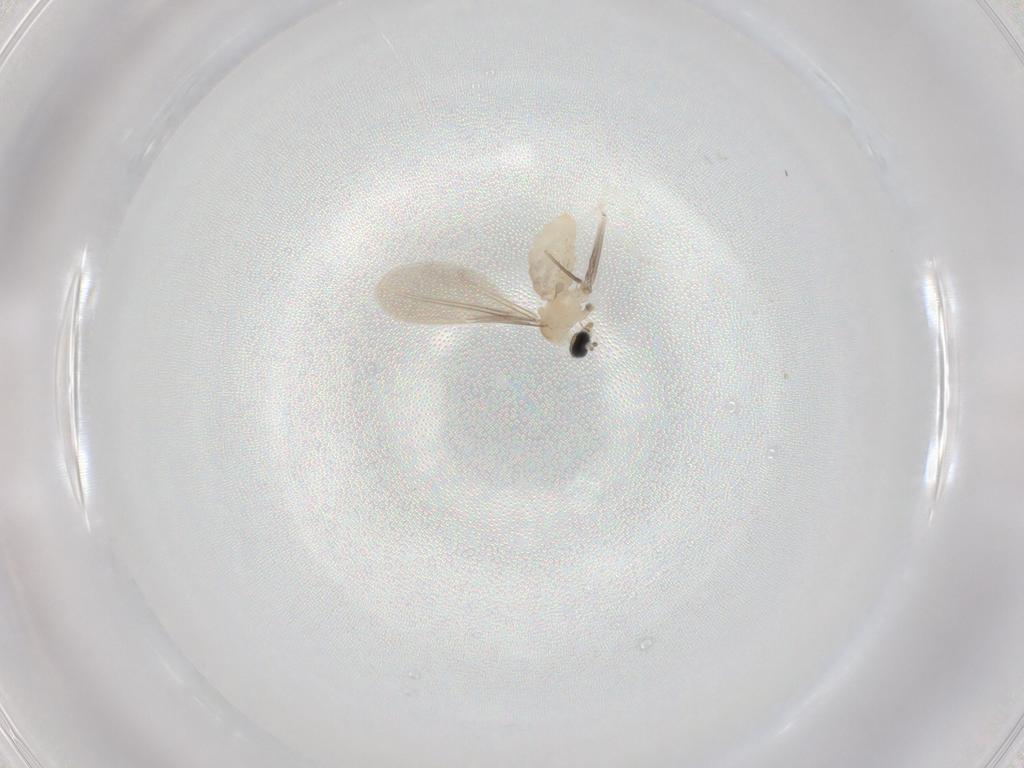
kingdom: Animalia
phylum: Arthropoda
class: Insecta
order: Diptera
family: Cecidomyiidae
